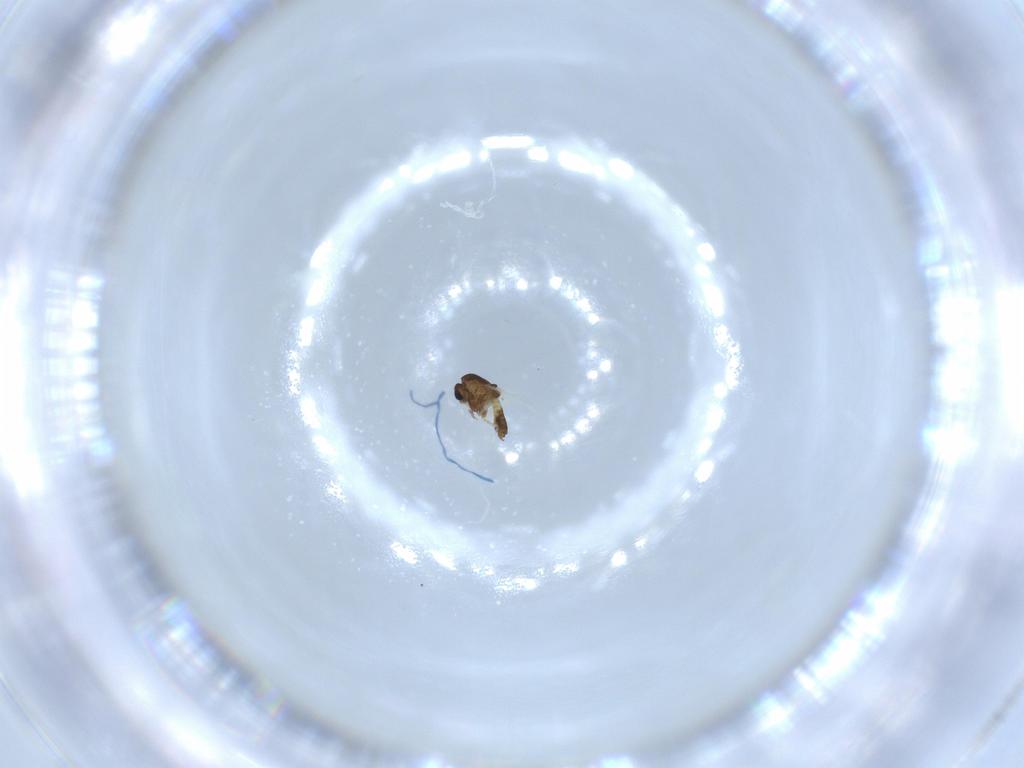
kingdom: Animalia
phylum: Arthropoda
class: Insecta
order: Diptera
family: Chironomidae
